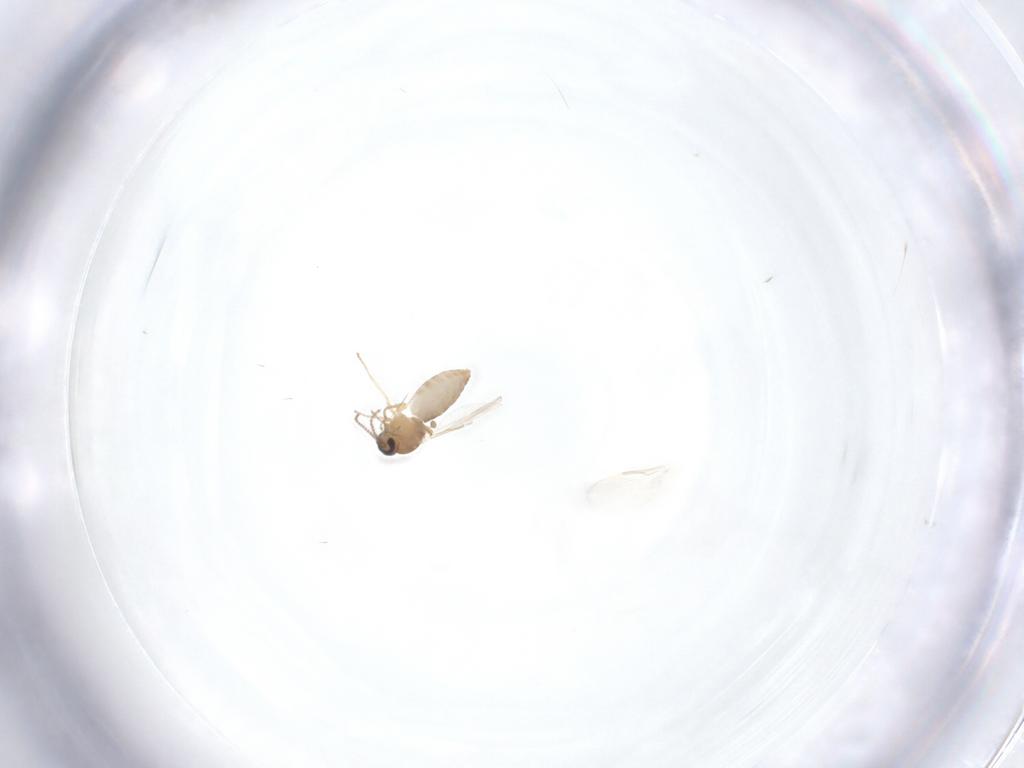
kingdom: Animalia
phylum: Arthropoda
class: Insecta
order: Diptera
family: Ceratopogonidae
